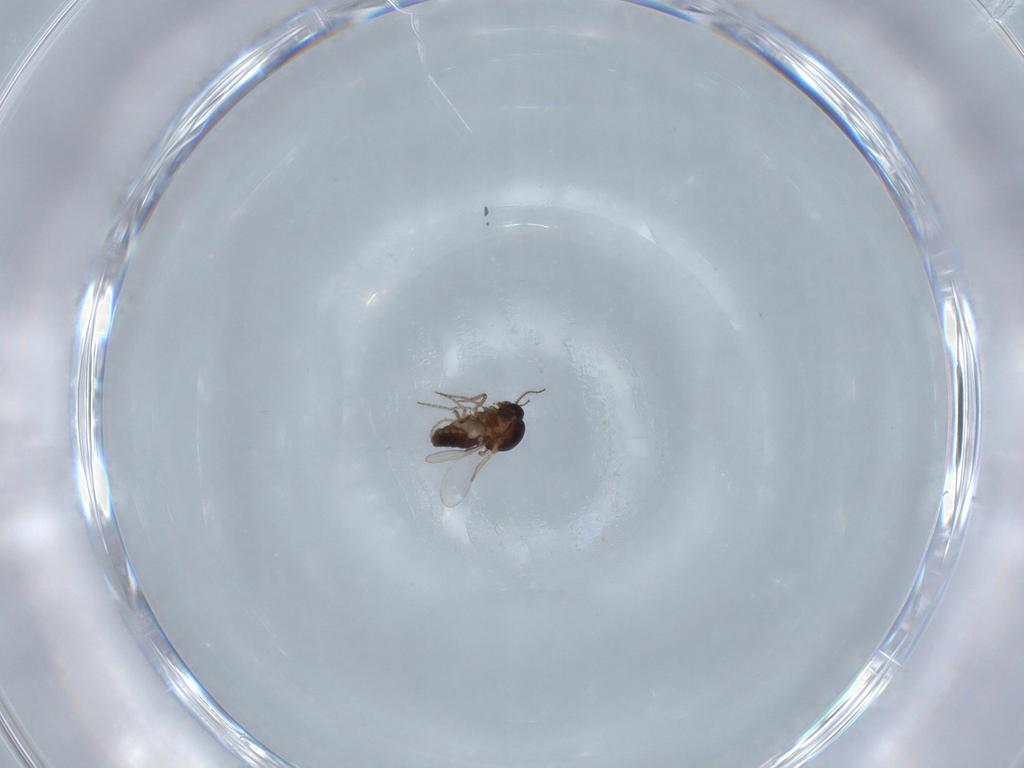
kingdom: Animalia
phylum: Arthropoda
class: Insecta
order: Diptera
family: Ceratopogonidae
